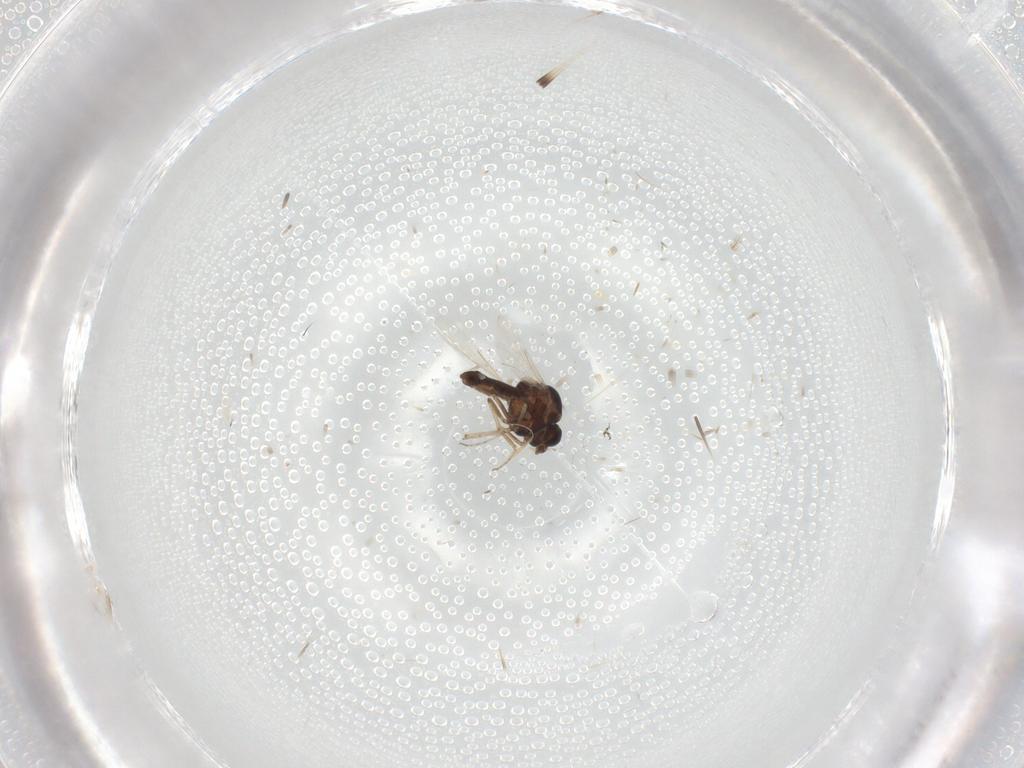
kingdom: Animalia
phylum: Arthropoda
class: Insecta
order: Diptera
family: Ceratopogonidae
